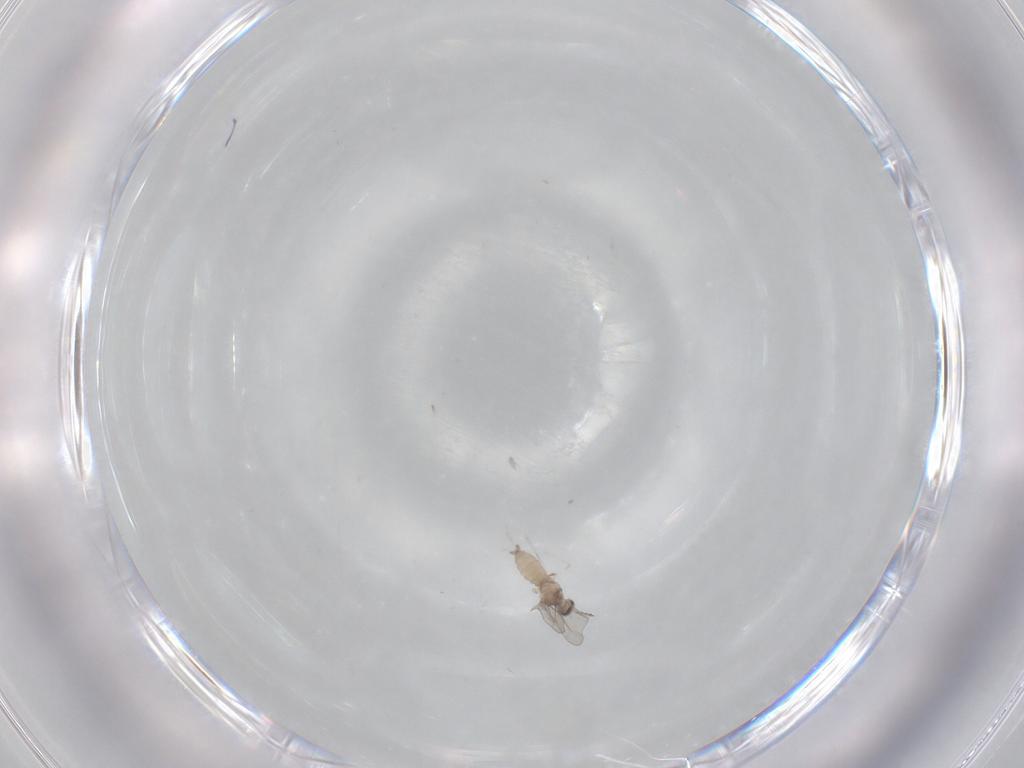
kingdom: Animalia
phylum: Arthropoda
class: Insecta
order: Diptera
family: Cecidomyiidae
